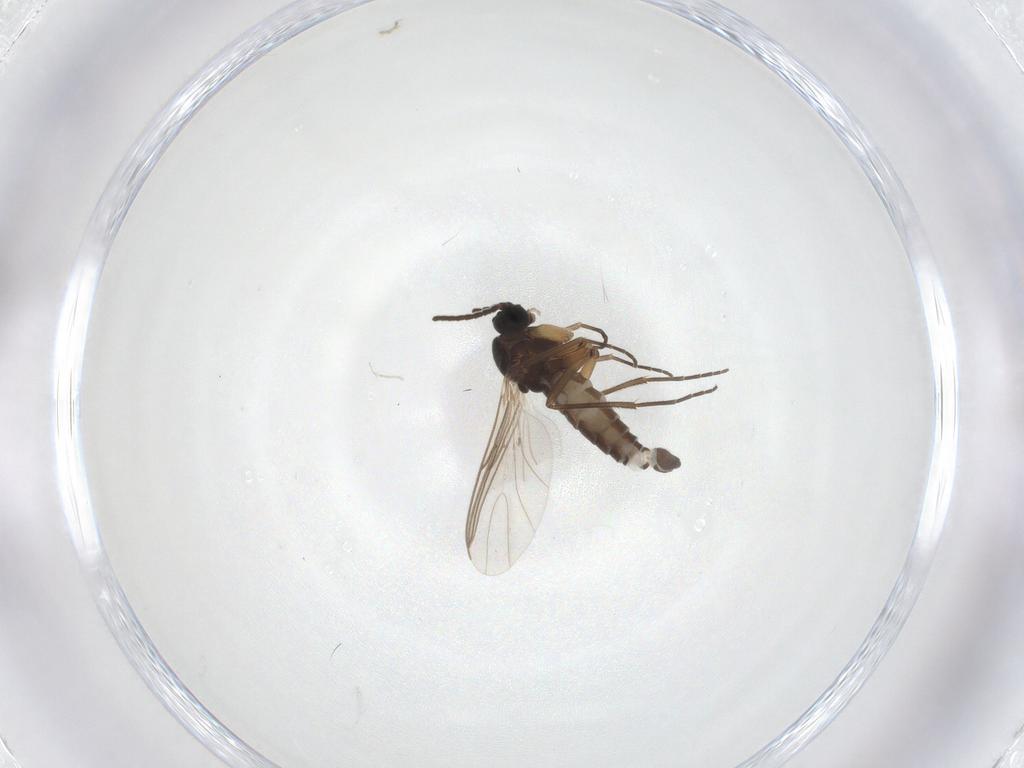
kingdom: Animalia
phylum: Arthropoda
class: Insecta
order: Diptera
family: Sciaridae
